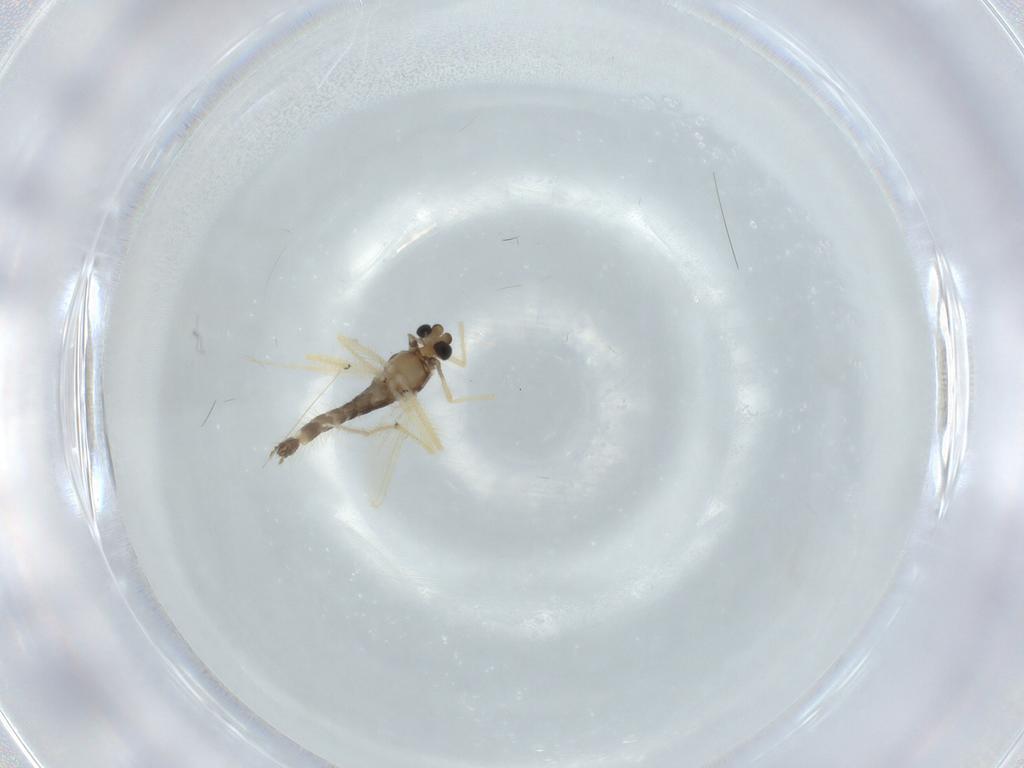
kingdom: Animalia
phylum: Arthropoda
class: Insecta
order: Diptera
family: Chironomidae
